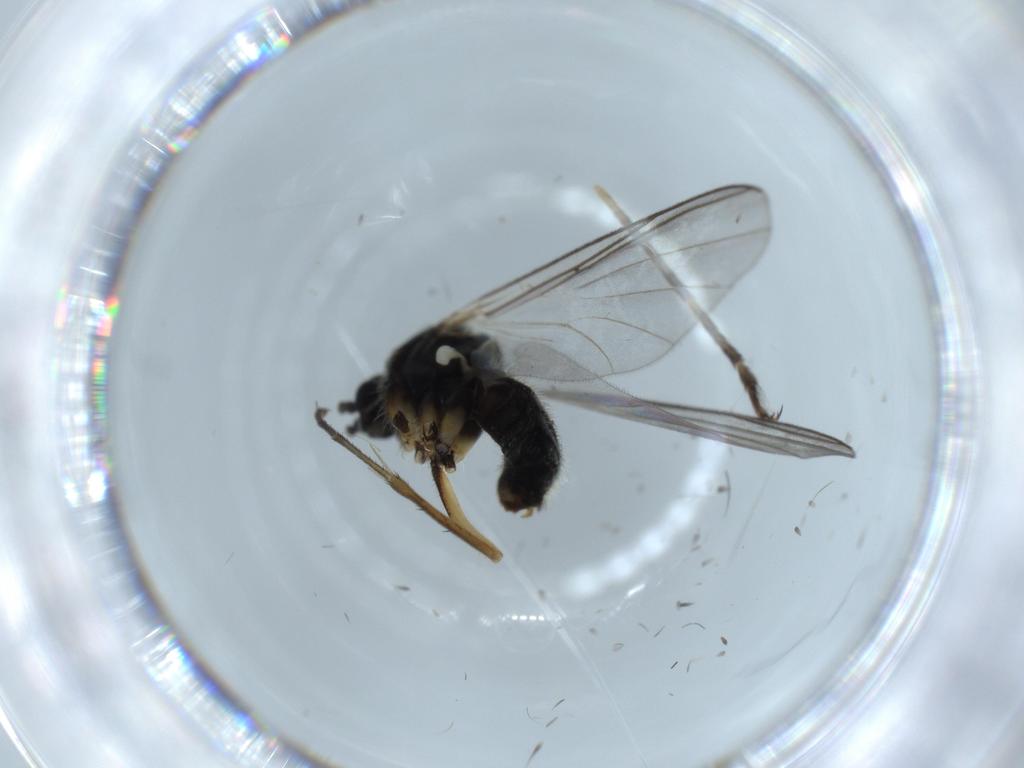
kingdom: Animalia
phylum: Arthropoda
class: Insecta
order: Diptera
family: Mycetophilidae
